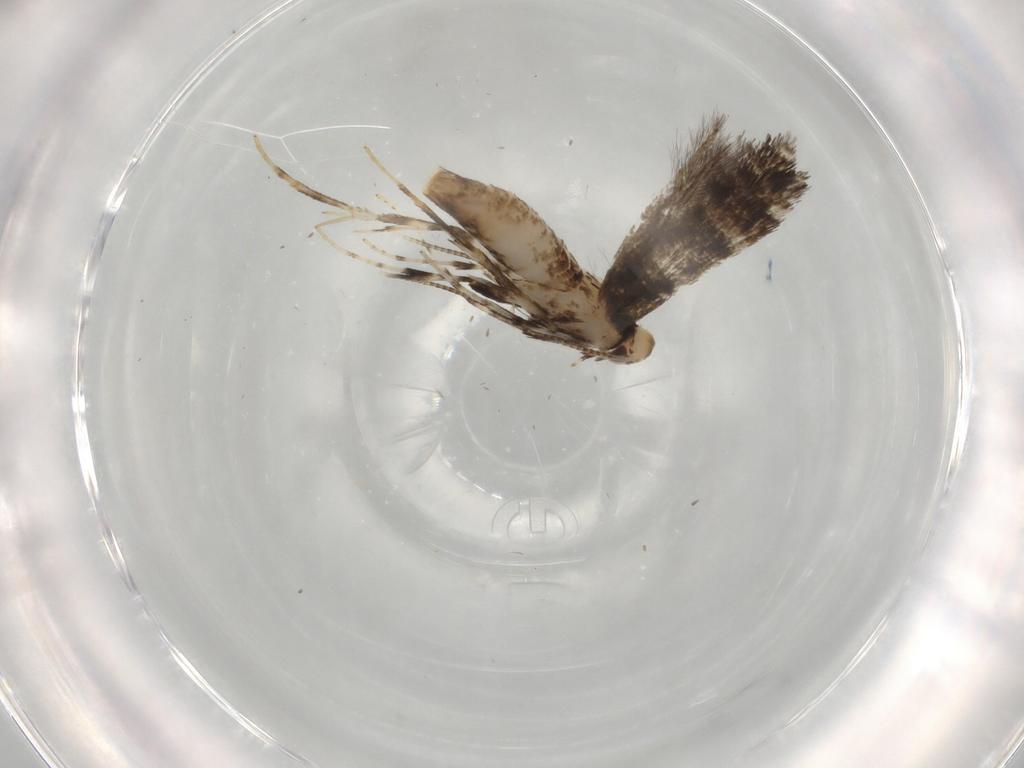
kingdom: Animalia
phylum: Arthropoda
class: Insecta
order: Lepidoptera
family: Gracillariidae
